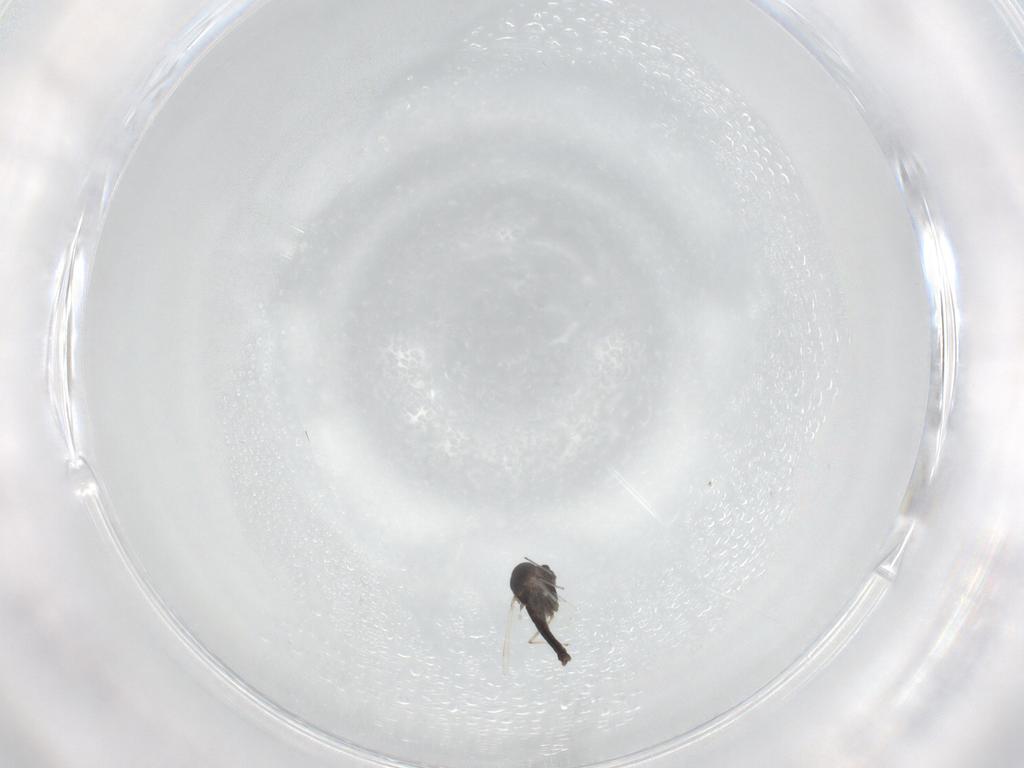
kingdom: Animalia
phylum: Arthropoda
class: Insecta
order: Diptera
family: Chironomidae
